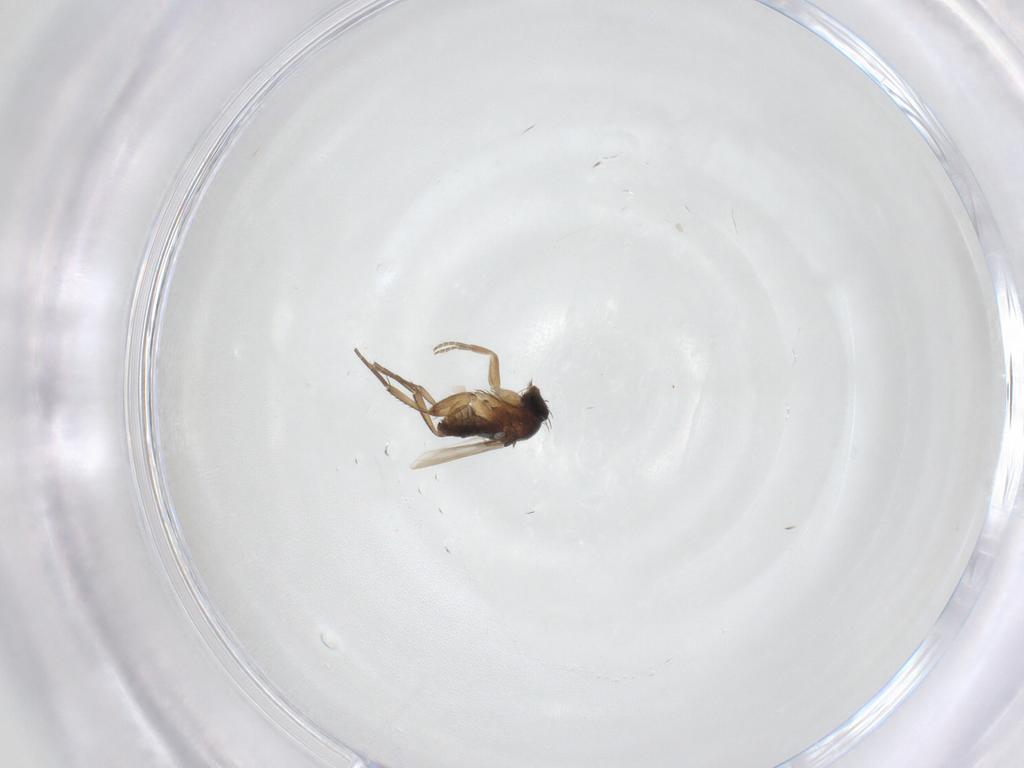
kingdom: Animalia
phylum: Arthropoda
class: Insecta
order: Diptera
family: Phoridae
